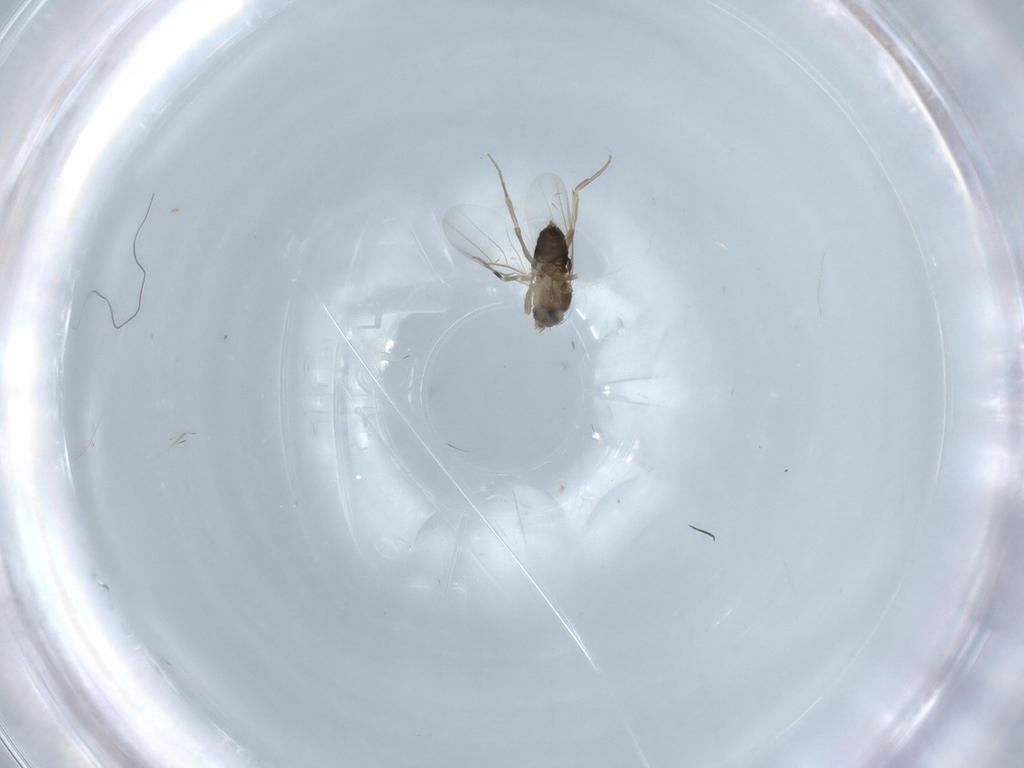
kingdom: Animalia
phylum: Arthropoda
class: Insecta
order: Diptera
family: Phoridae
